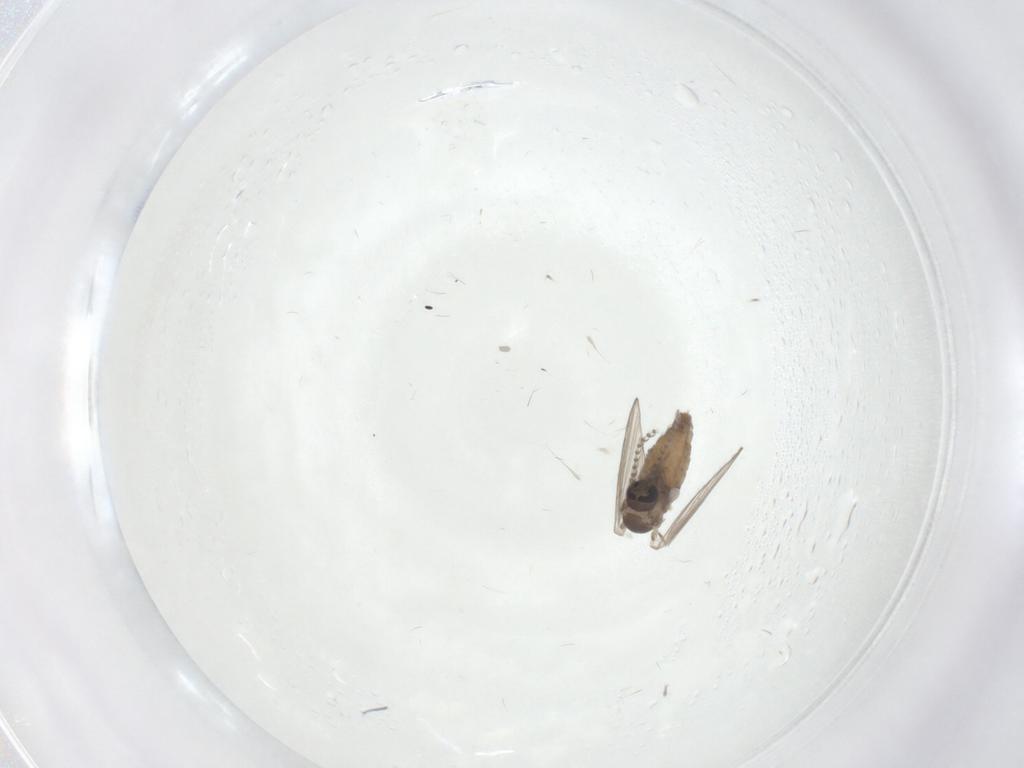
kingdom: Animalia
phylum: Arthropoda
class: Insecta
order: Diptera
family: Psychodidae
